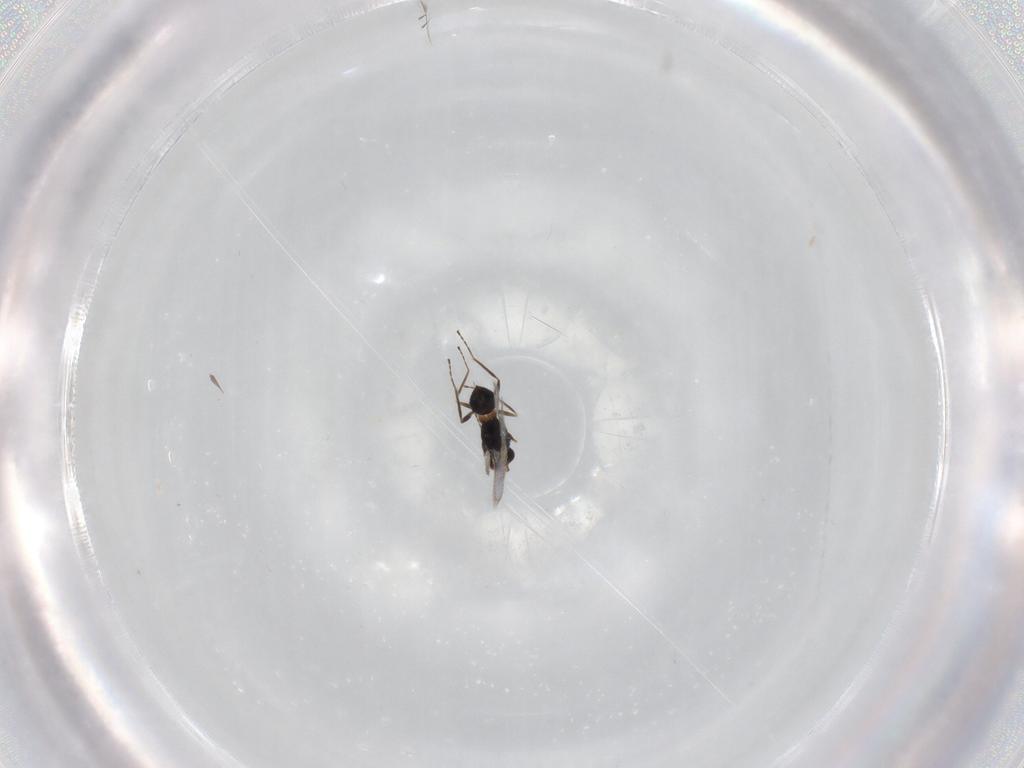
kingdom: Animalia
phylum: Arthropoda
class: Insecta
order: Hymenoptera
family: Mymaridae
